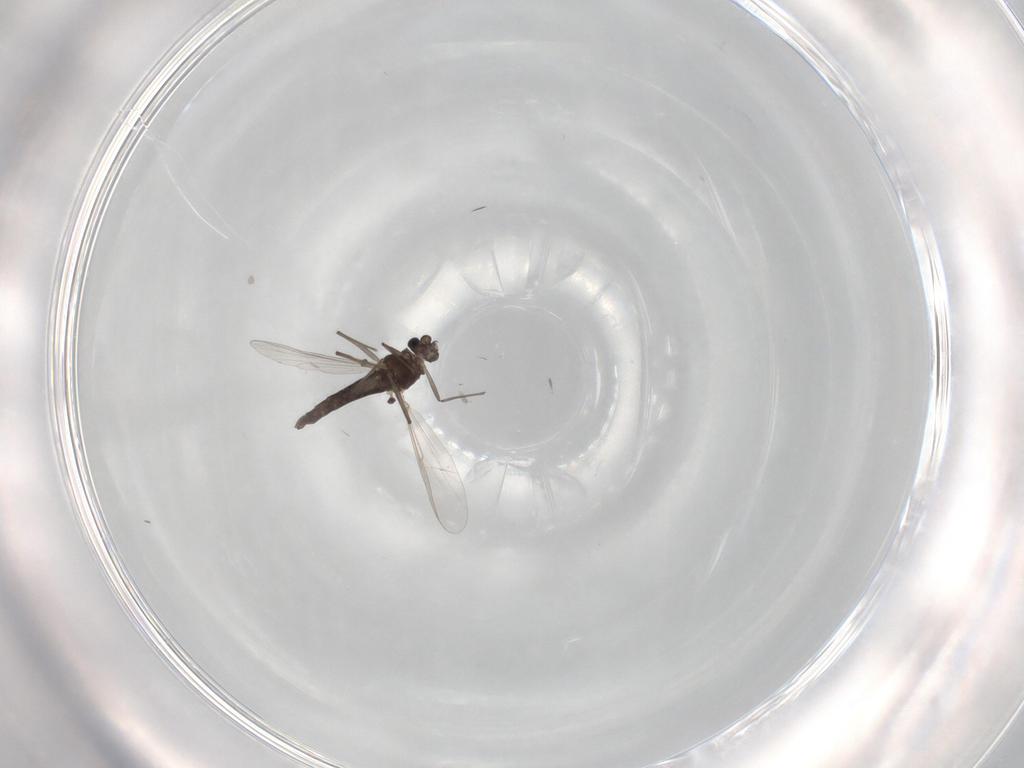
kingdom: Animalia
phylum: Arthropoda
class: Insecta
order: Diptera
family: Chironomidae
